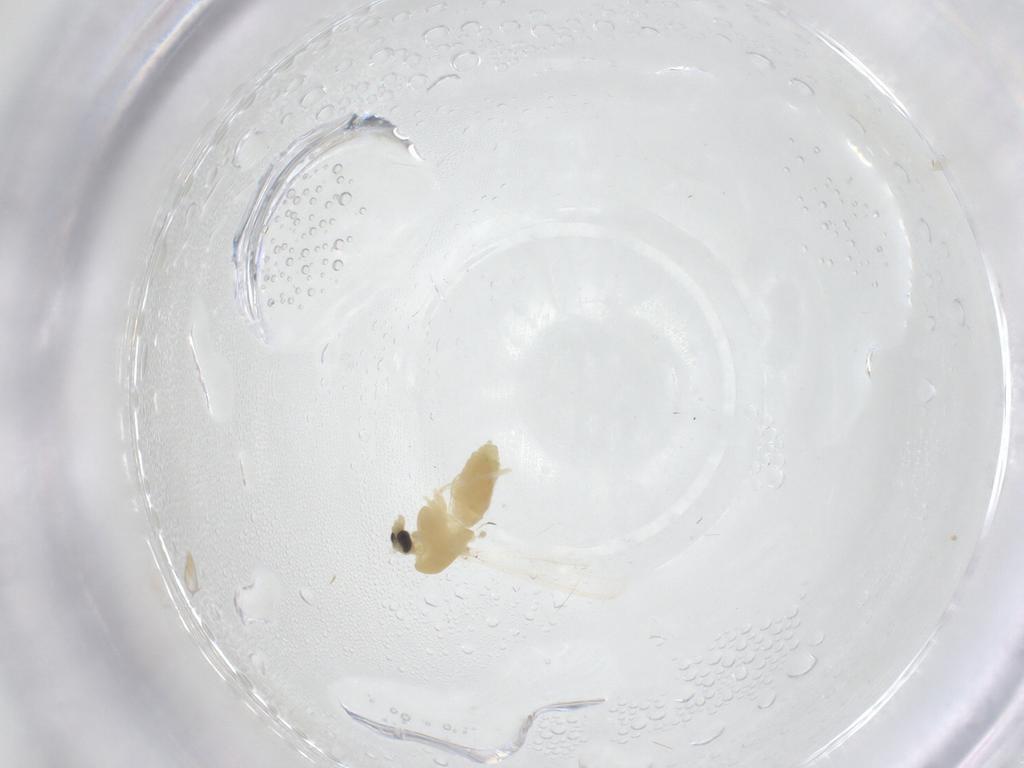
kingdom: Animalia
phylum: Arthropoda
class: Insecta
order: Diptera
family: Chironomidae
